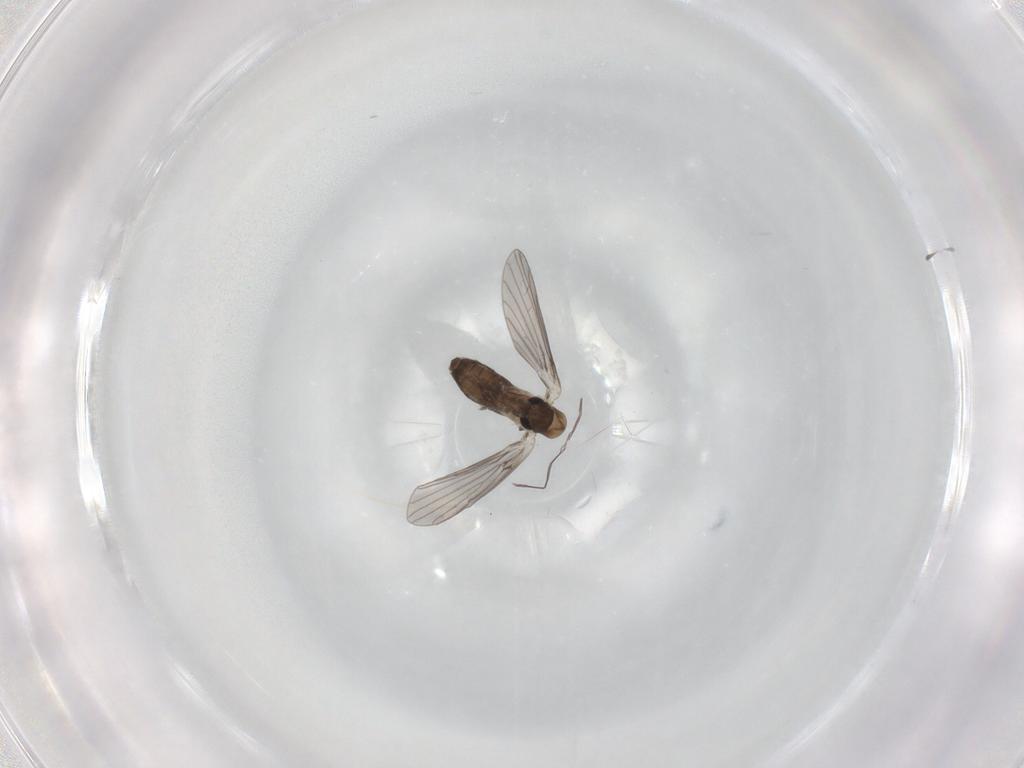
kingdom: Animalia
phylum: Arthropoda
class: Insecta
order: Diptera
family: Psychodidae
